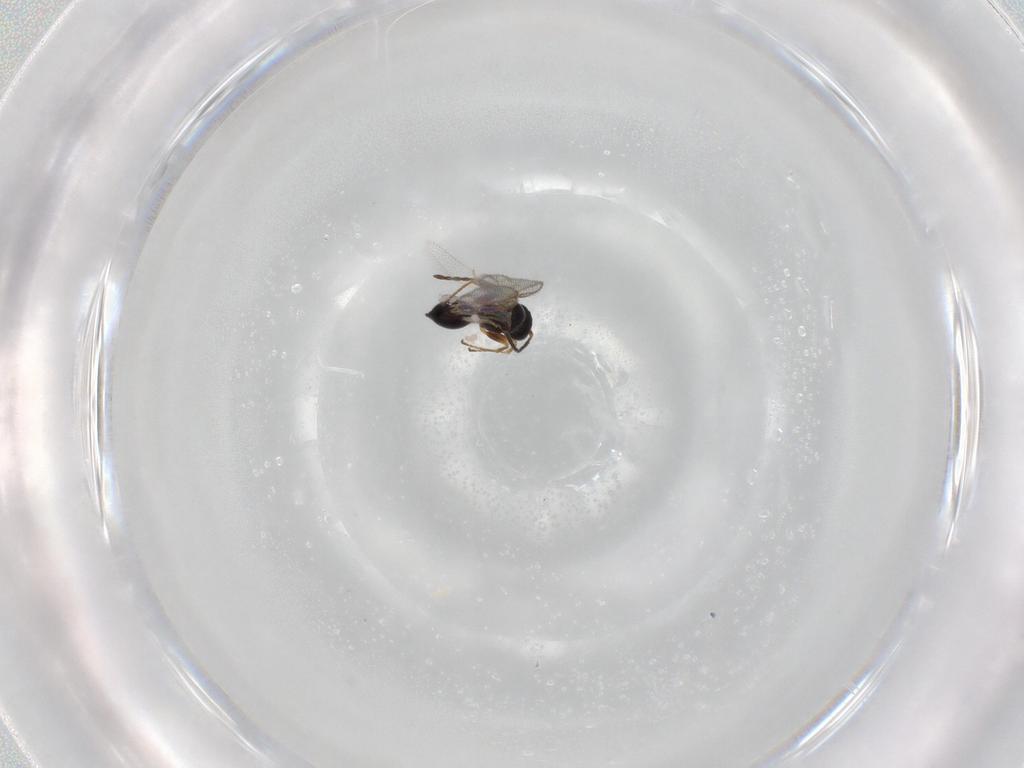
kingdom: Animalia
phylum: Arthropoda
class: Insecta
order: Hymenoptera
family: Figitidae
